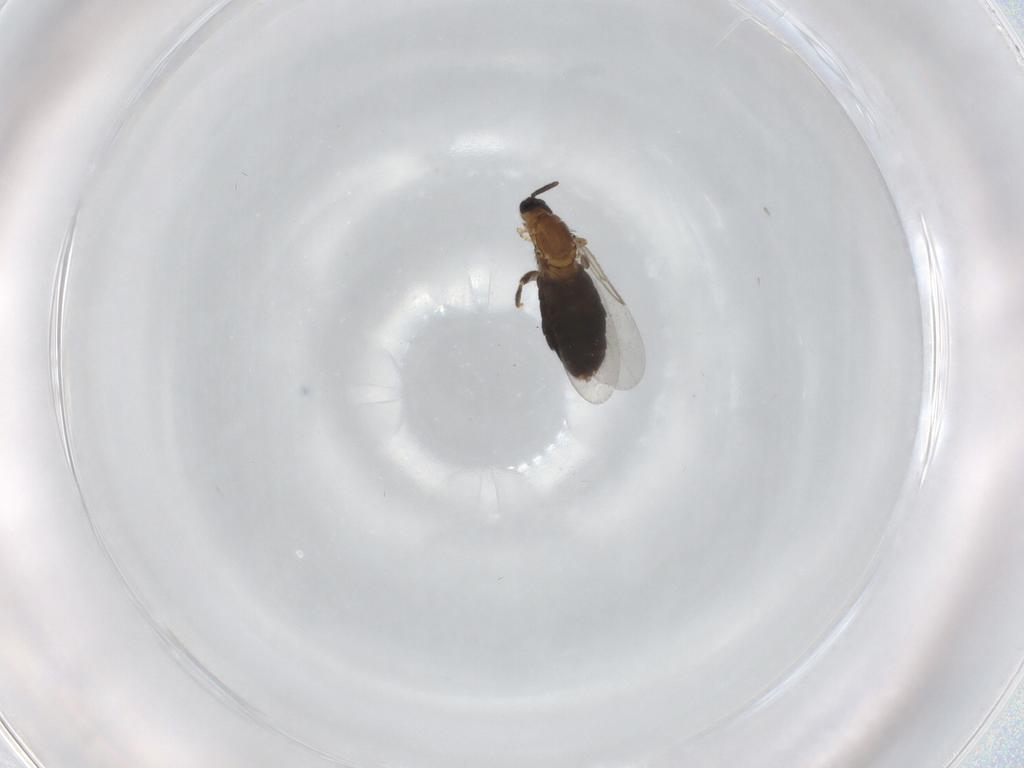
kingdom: Animalia
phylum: Arthropoda
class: Insecta
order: Diptera
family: Scatopsidae
